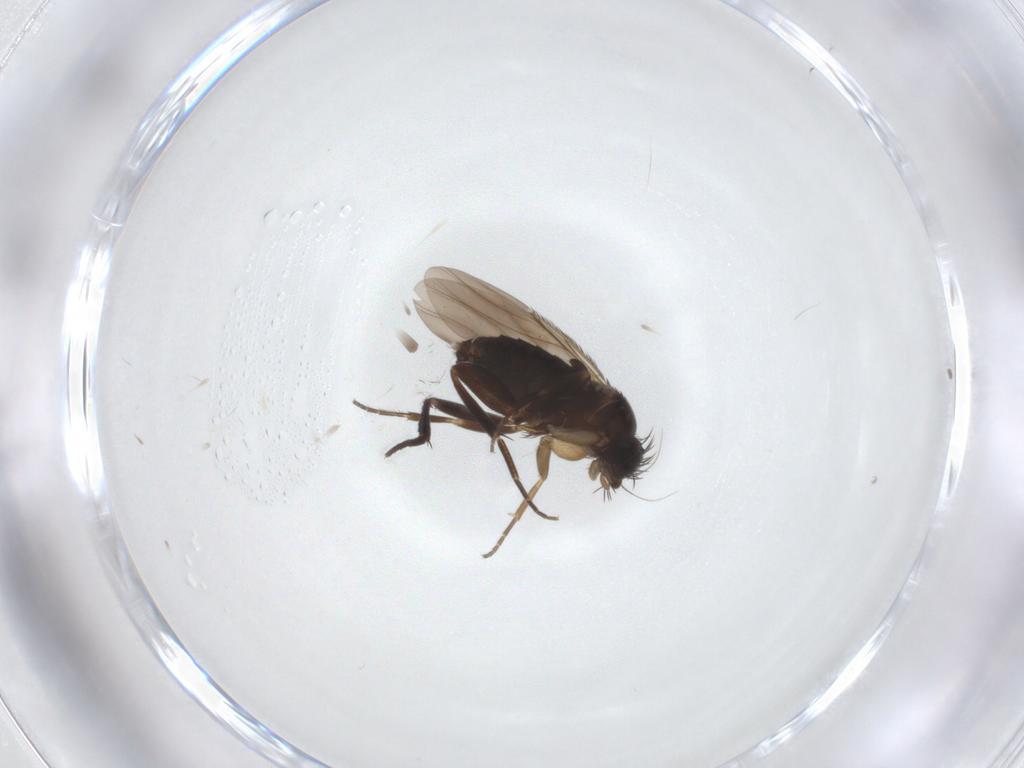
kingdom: Animalia
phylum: Arthropoda
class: Insecta
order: Diptera
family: Phoridae
